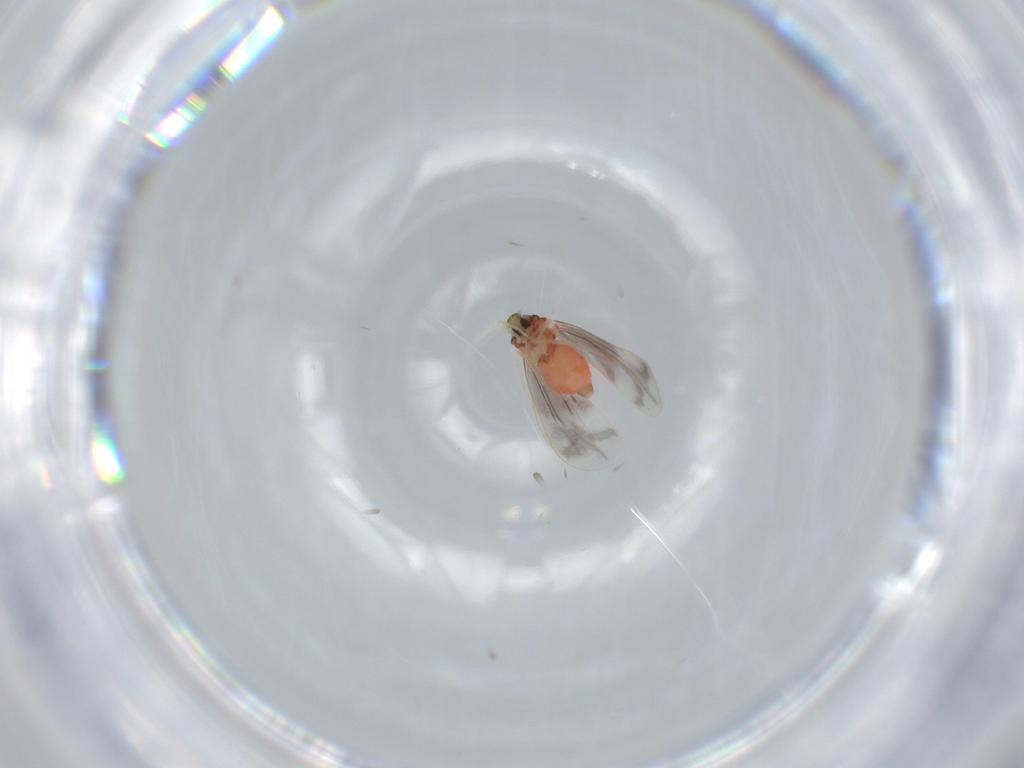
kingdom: Animalia
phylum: Arthropoda
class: Insecta
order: Hemiptera
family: Aleyrodidae
